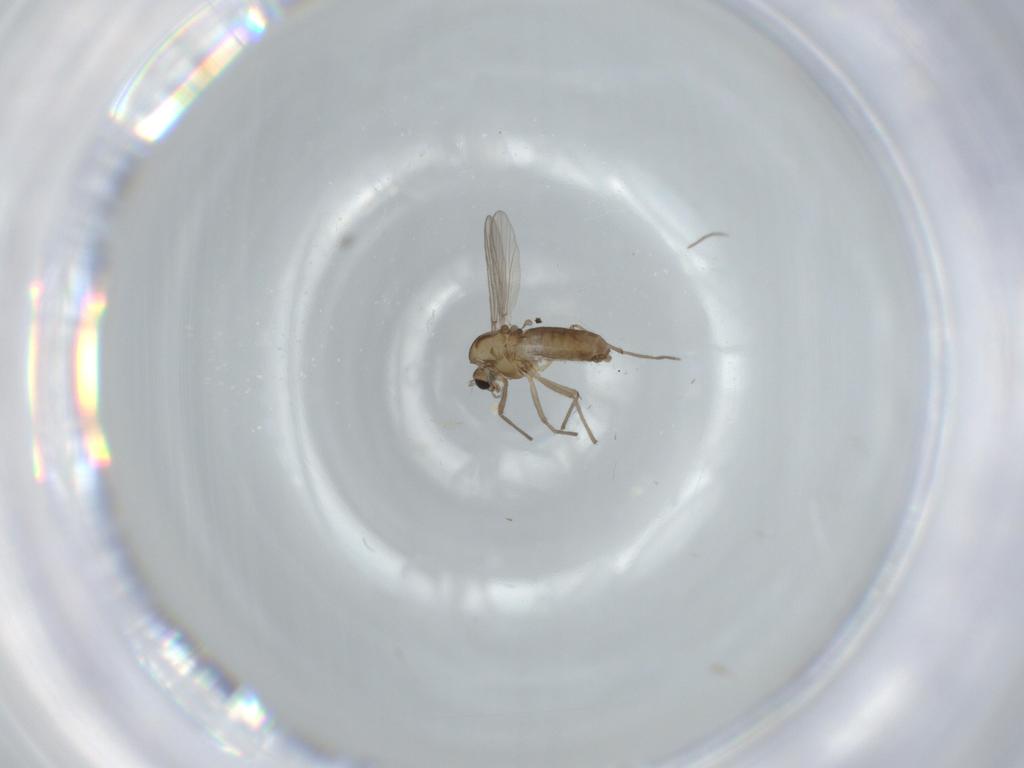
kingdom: Animalia
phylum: Arthropoda
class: Insecta
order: Diptera
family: Chironomidae
